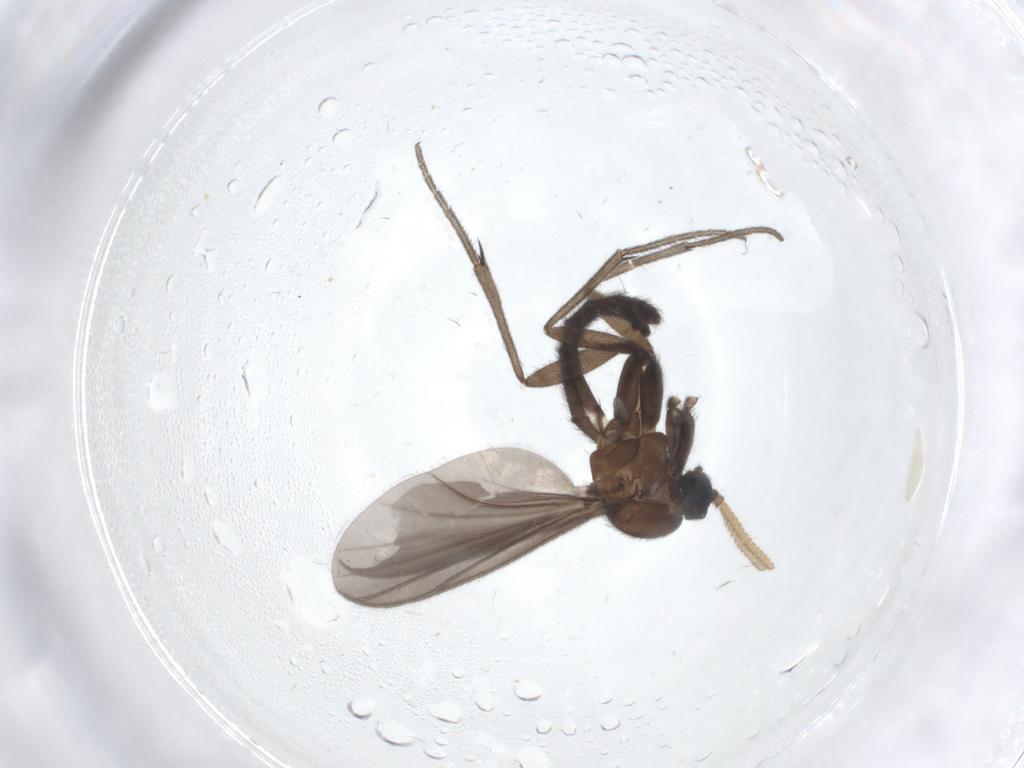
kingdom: Animalia
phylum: Arthropoda
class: Insecta
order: Diptera
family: Mycetophilidae
